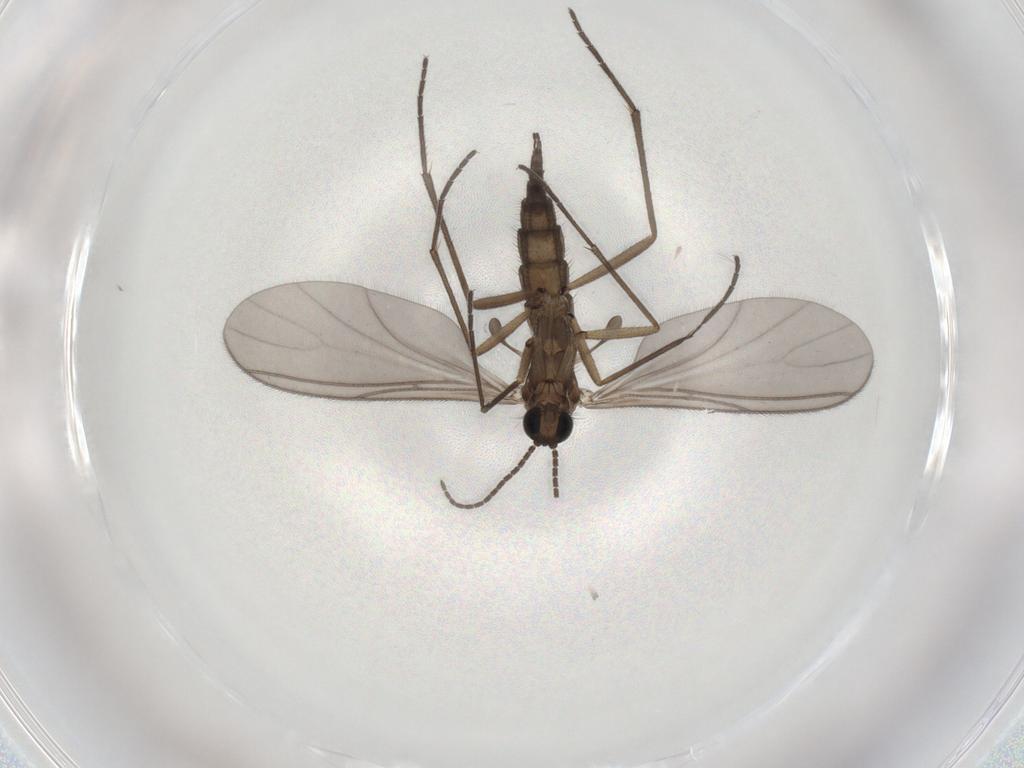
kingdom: Animalia
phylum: Arthropoda
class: Insecta
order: Diptera
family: Sciaridae
